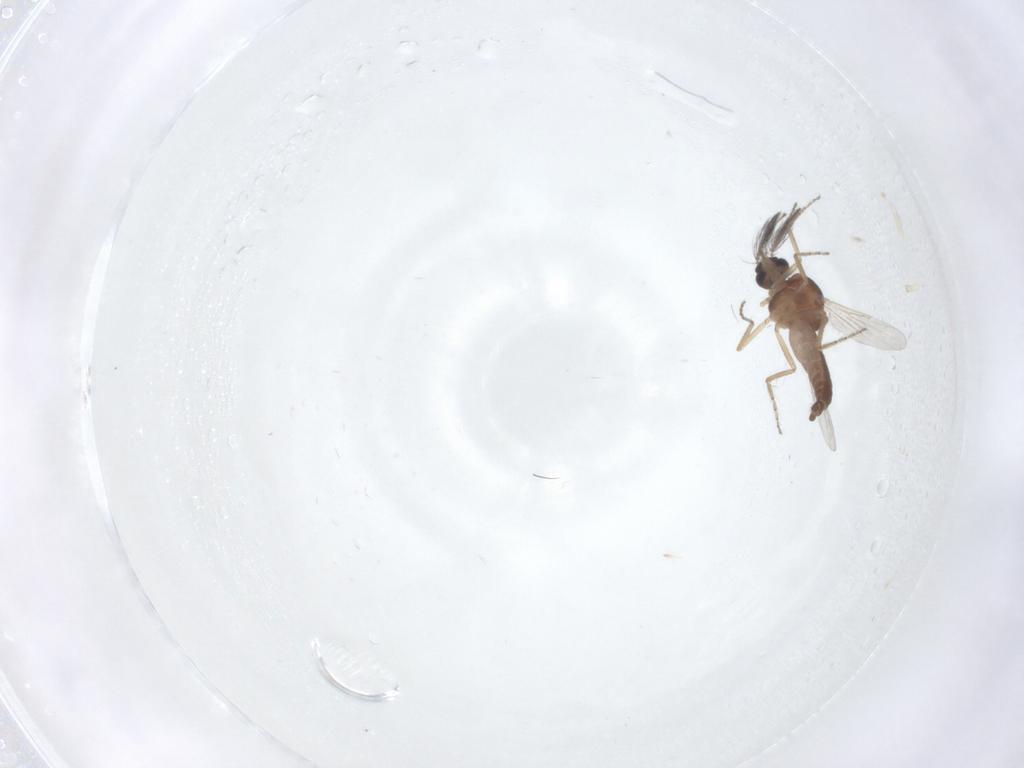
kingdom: Animalia
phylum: Arthropoda
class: Insecta
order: Diptera
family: Ceratopogonidae
